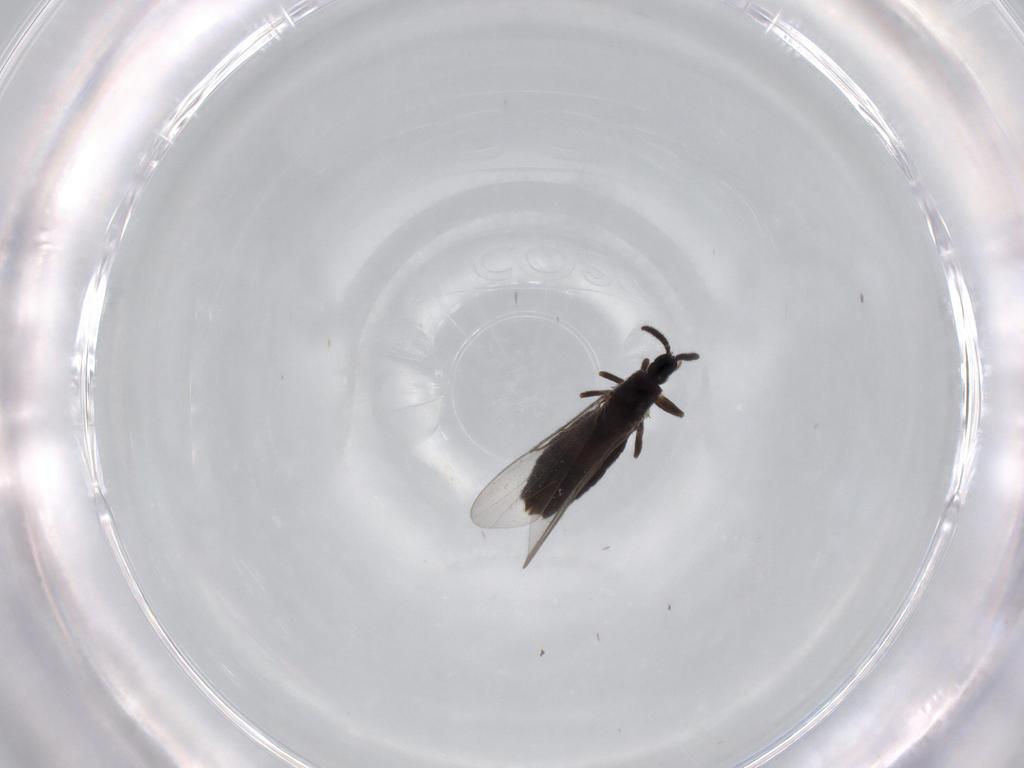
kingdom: Animalia
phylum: Arthropoda
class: Insecta
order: Diptera
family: Scatopsidae
